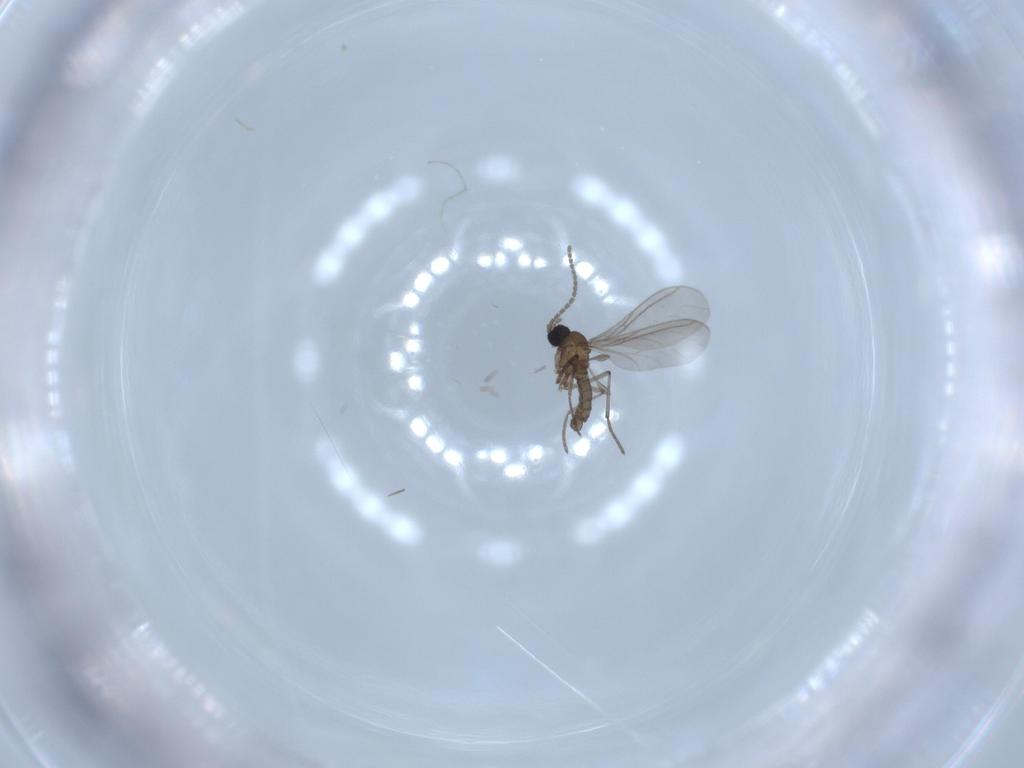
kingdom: Animalia
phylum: Arthropoda
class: Insecta
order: Diptera
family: Sciaridae
